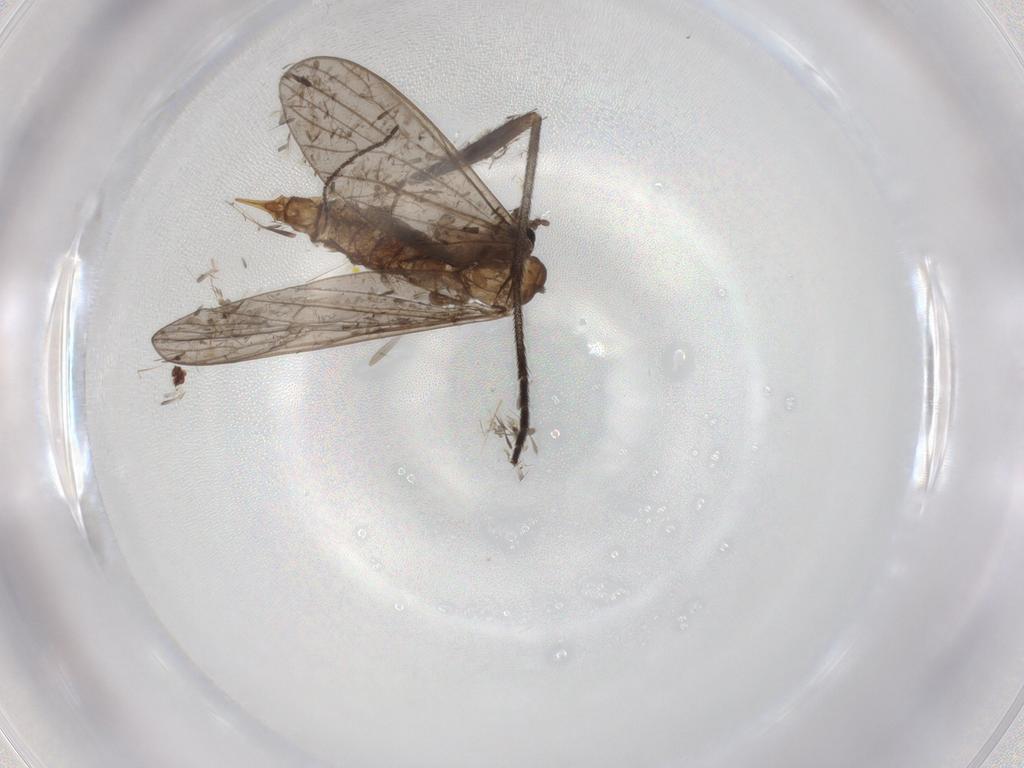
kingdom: Animalia
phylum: Arthropoda
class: Insecta
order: Diptera
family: Limoniidae
